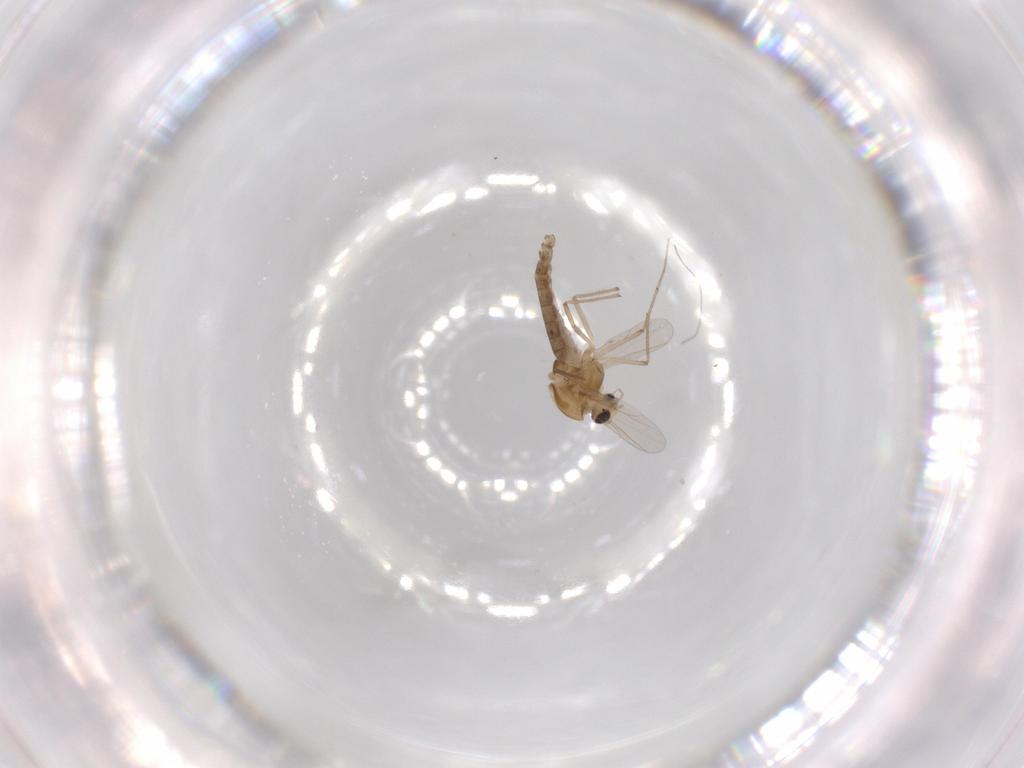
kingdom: Animalia
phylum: Arthropoda
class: Insecta
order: Diptera
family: Chironomidae
